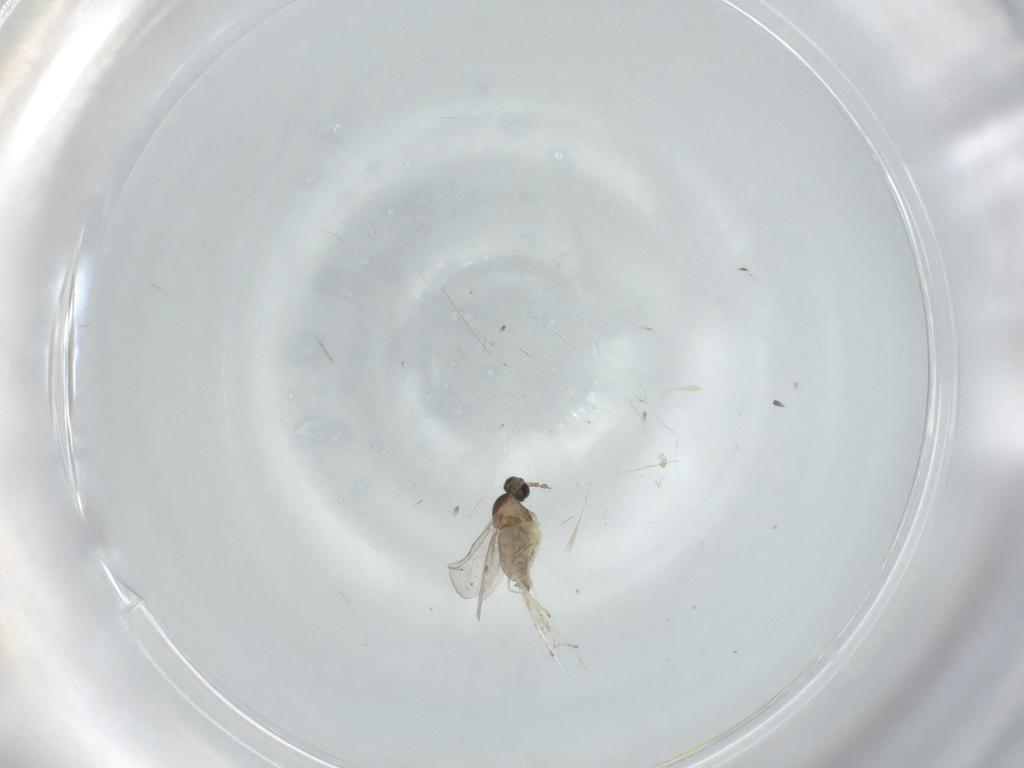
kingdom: Animalia
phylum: Arthropoda
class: Insecta
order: Diptera
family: Cecidomyiidae
